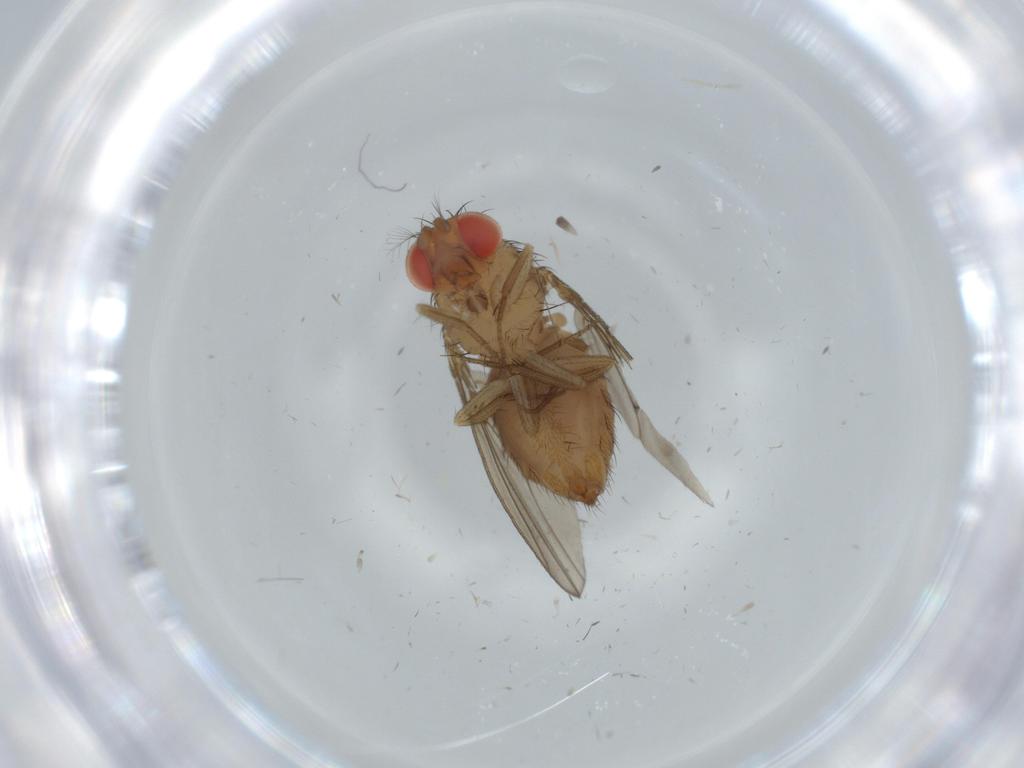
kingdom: Animalia
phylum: Arthropoda
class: Insecta
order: Diptera
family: Drosophilidae
